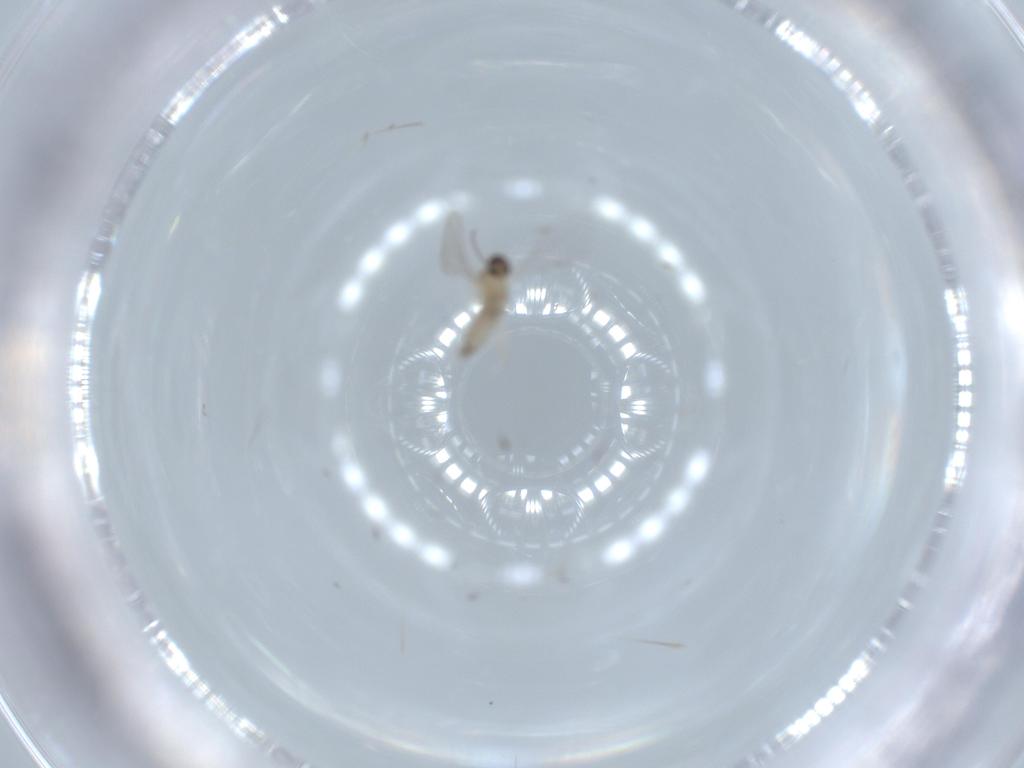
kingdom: Animalia
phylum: Arthropoda
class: Insecta
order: Diptera
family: Cecidomyiidae
